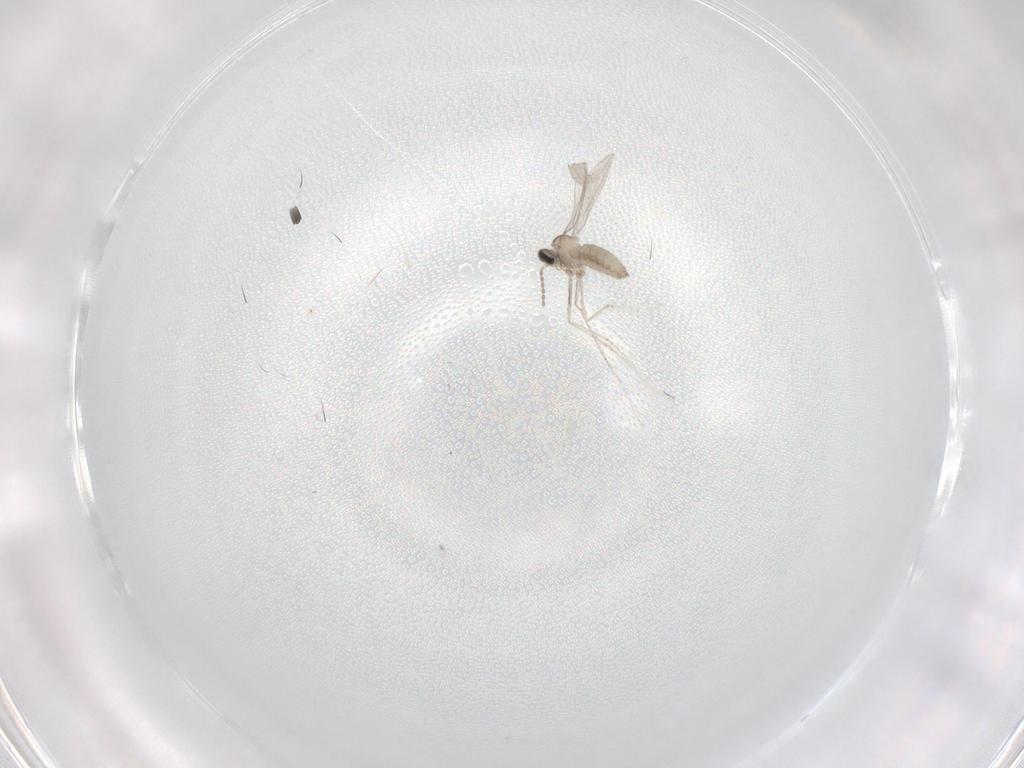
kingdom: Animalia
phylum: Arthropoda
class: Insecta
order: Diptera
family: Cecidomyiidae
